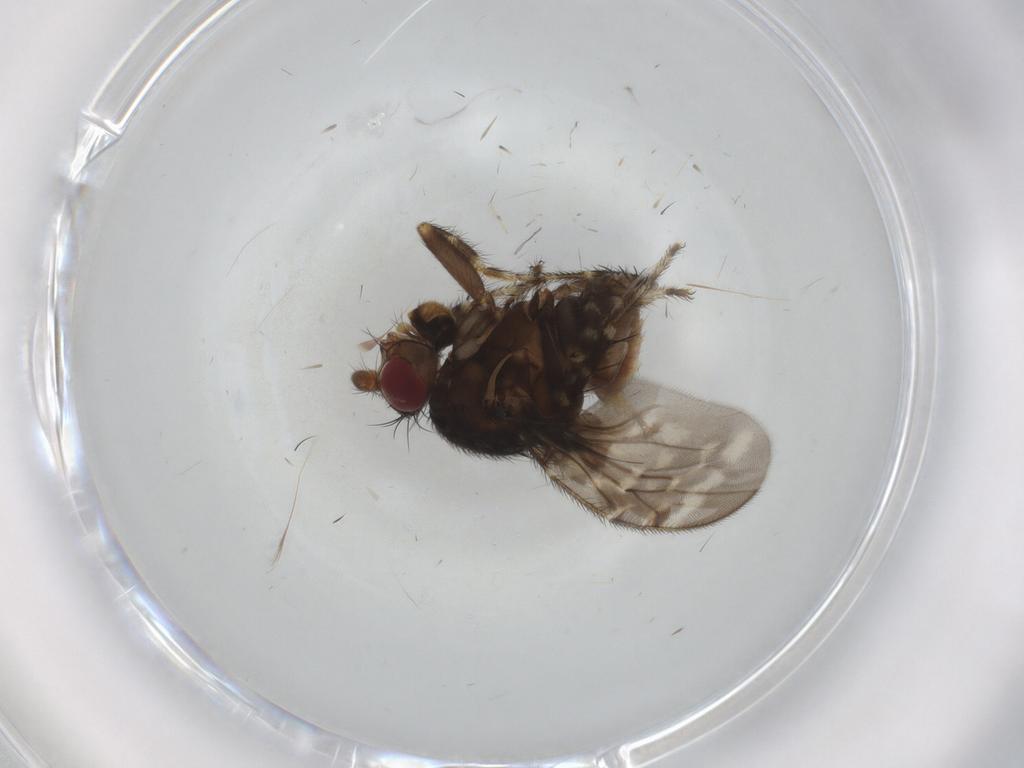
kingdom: Animalia
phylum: Arthropoda
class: Insecta
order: Diptera
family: Sphaeroceridae
